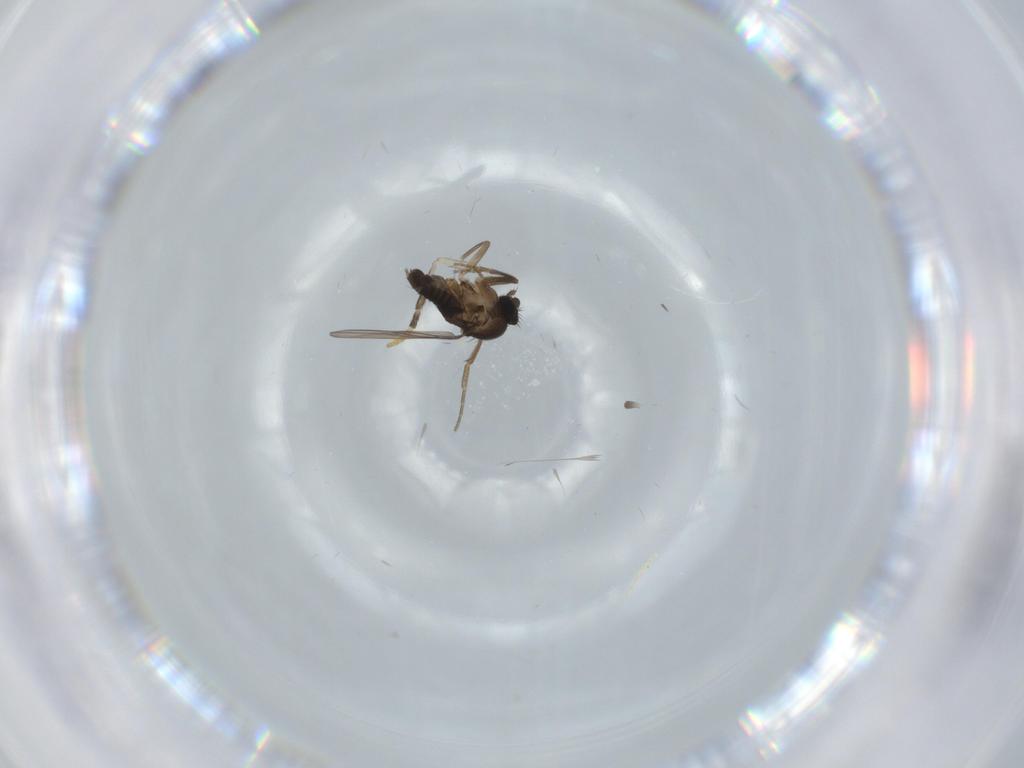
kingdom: Animalia
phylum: Arthropoda
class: Insecta
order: Diptera
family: Phoridae
